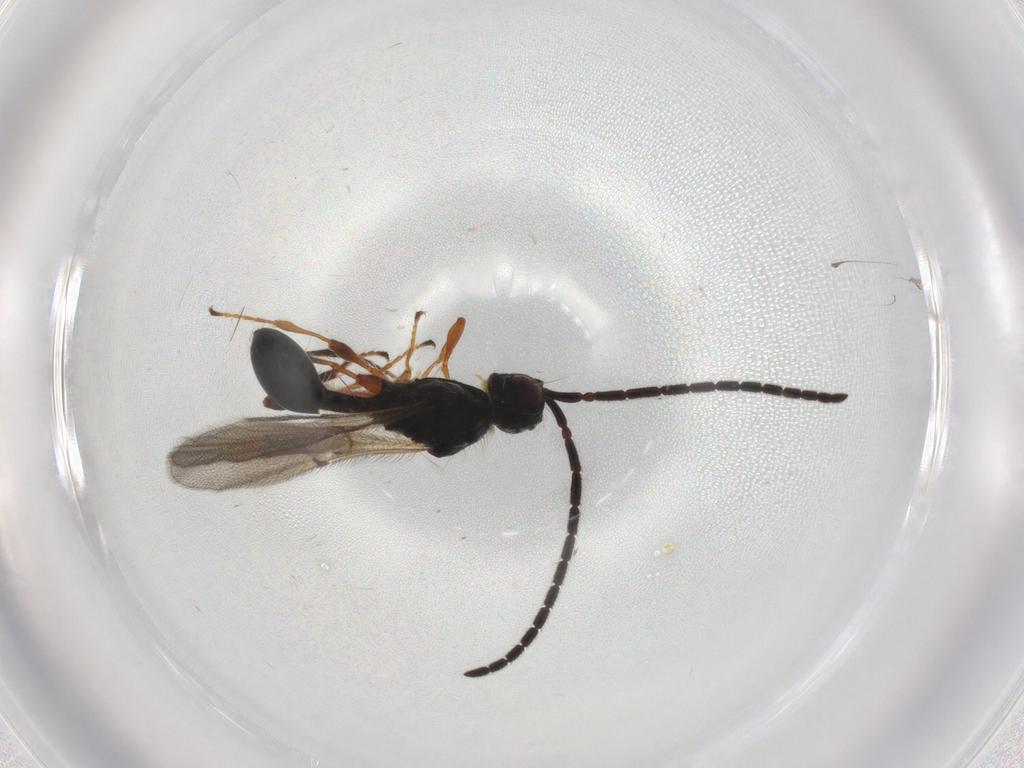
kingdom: Animalia
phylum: Arthropoda
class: Insecta
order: Hymenoptera
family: Diapriidae
